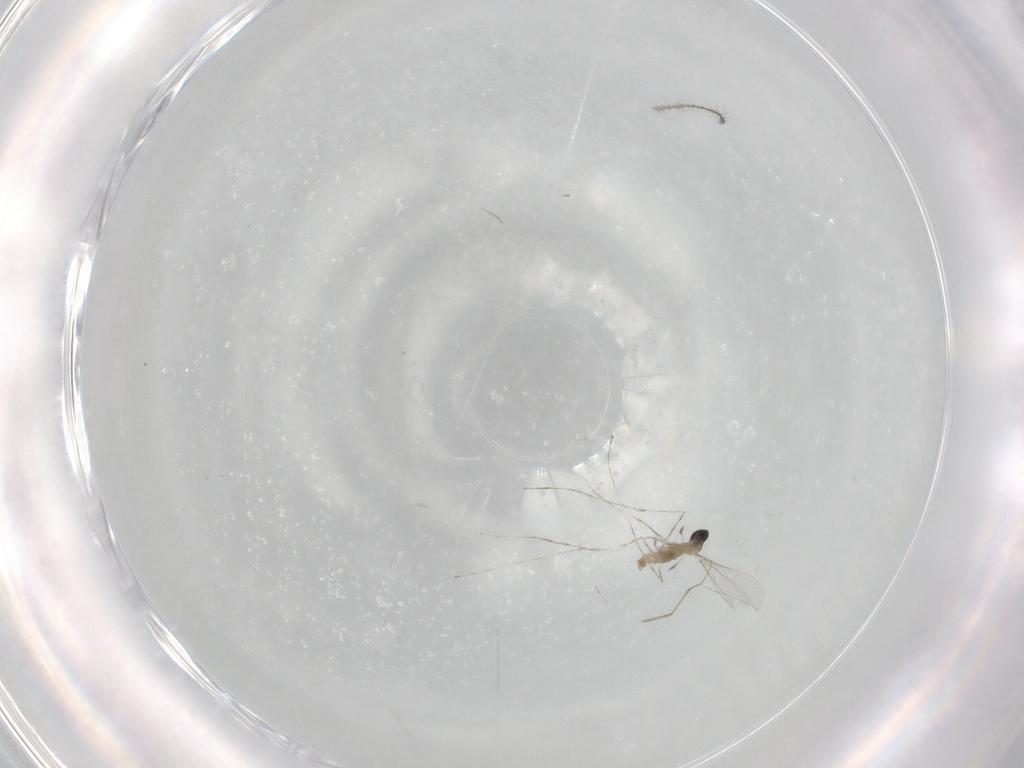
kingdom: Animalia
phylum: Arthropoda
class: Insecta
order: Diptera
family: Cecidomyiidae
